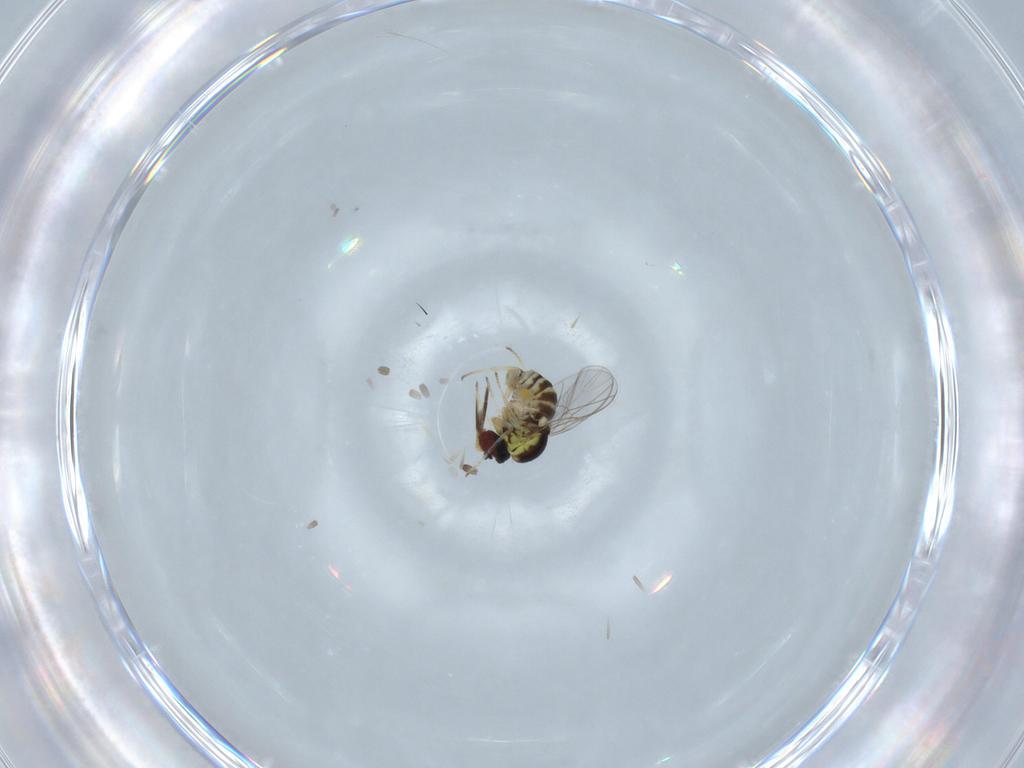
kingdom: Animalia
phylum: Arthropoda
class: Insecta
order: Diptera
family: Bombyliidae
